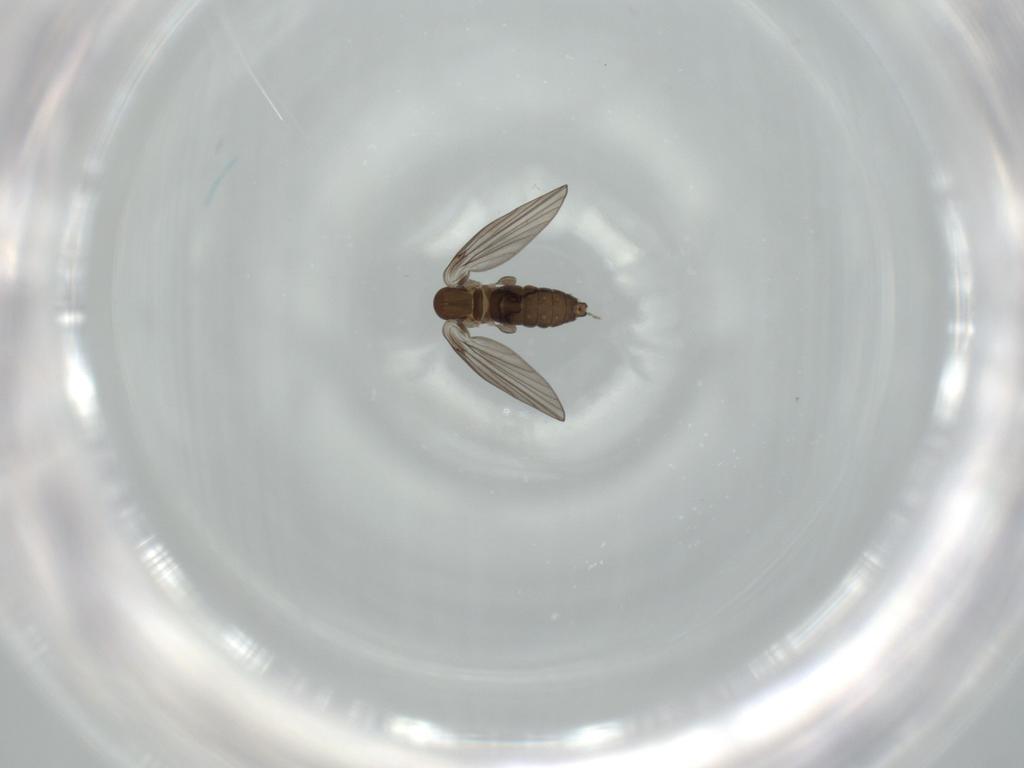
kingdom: Animalia
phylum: Arthropoda
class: Insecta
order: Diptera
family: Psychodidae
